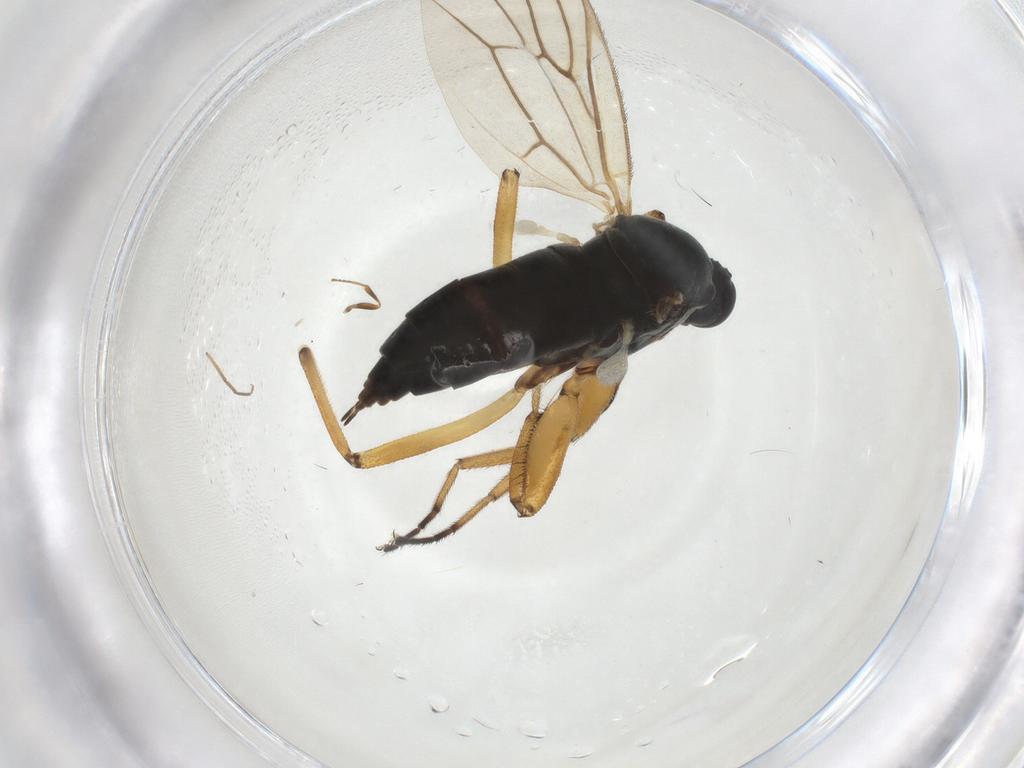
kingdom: Animalia
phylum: Arthropoda
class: Insecta
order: Diptera
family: Hybotidae
